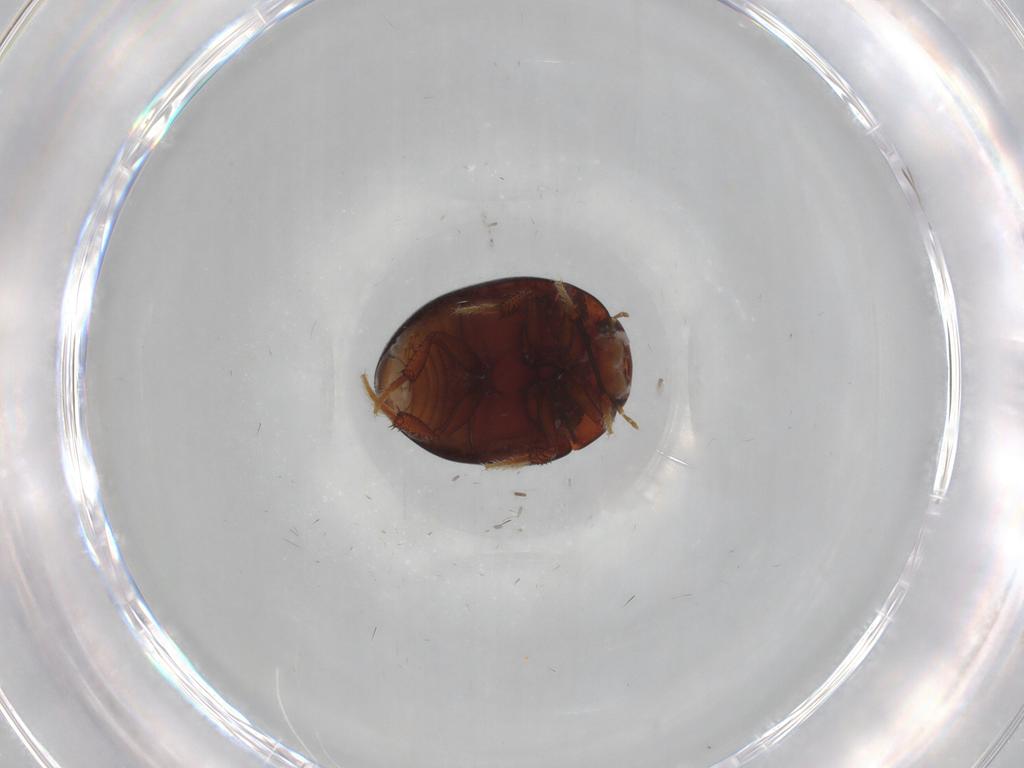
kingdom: Animalia
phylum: Arthropoda
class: Insecta
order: Coleoptera
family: Hydrophilidae
